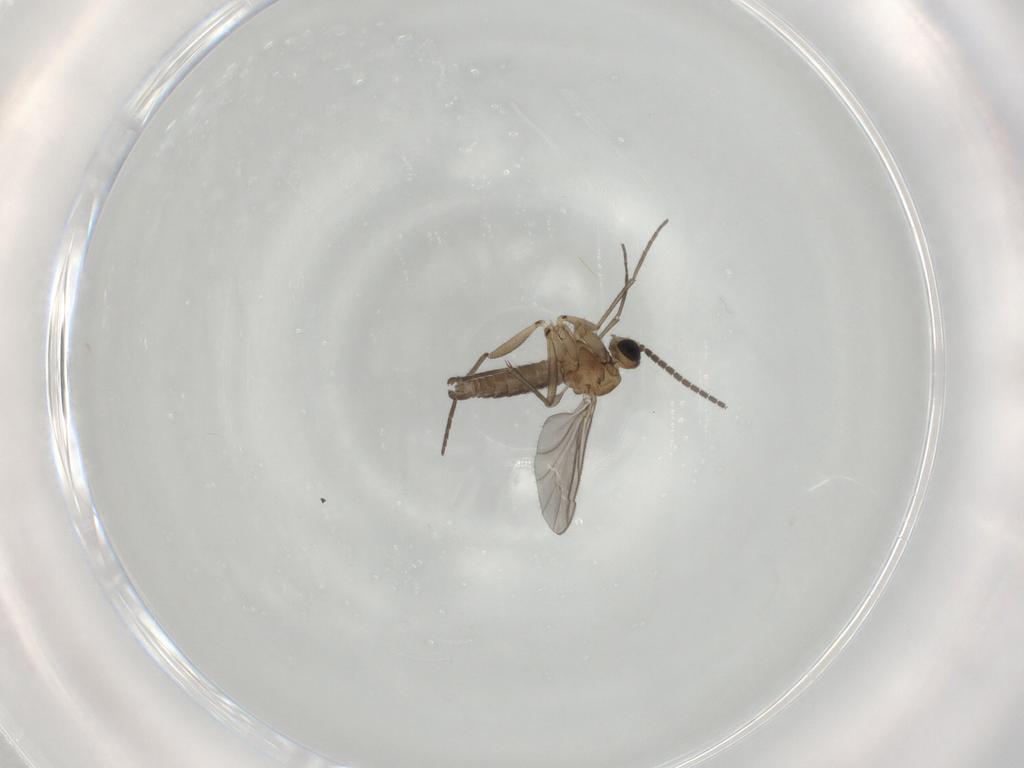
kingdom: Animalia
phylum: Arthropoda
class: Insecta
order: Diptera
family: Sciaridae
